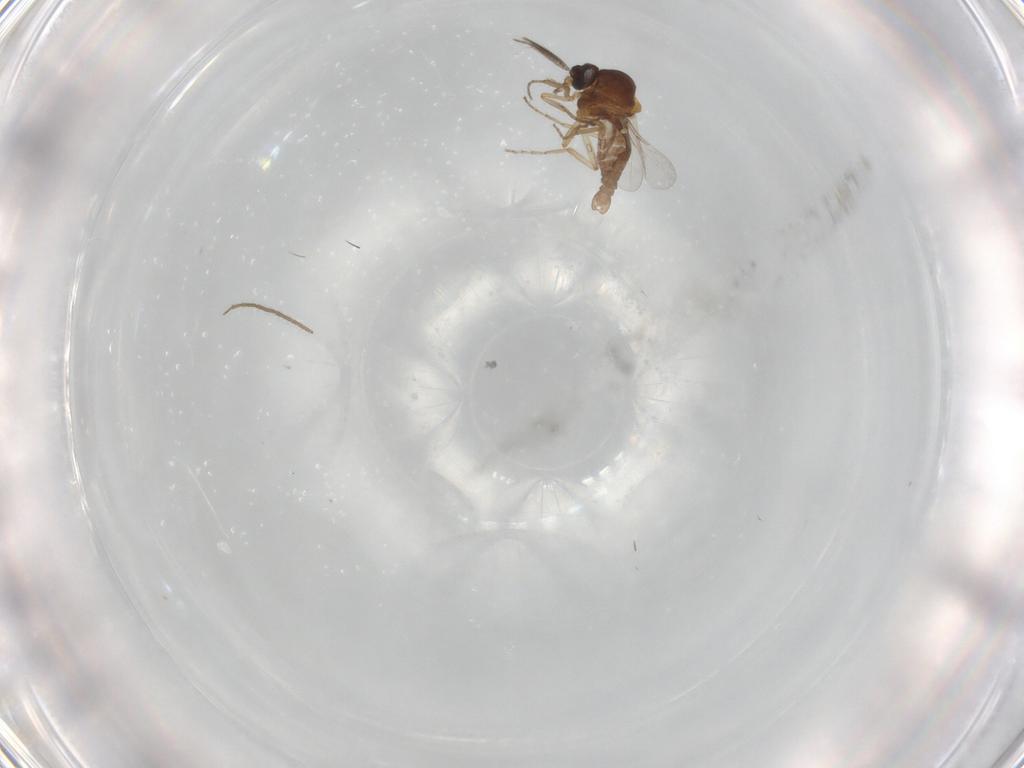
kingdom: Animalia
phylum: Arthropoda
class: Insecta
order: Diptera
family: Ceratopogonidae
